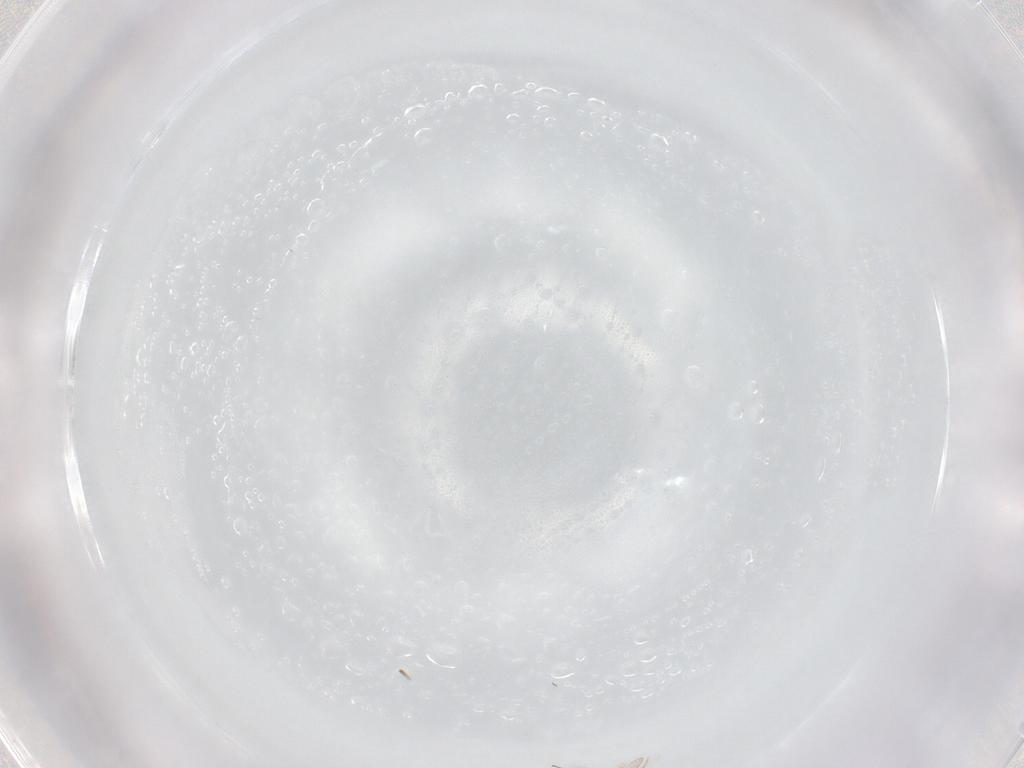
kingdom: Animalia
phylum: Arthropoda
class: Insecta
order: Hymenoptera
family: Scelionidae
